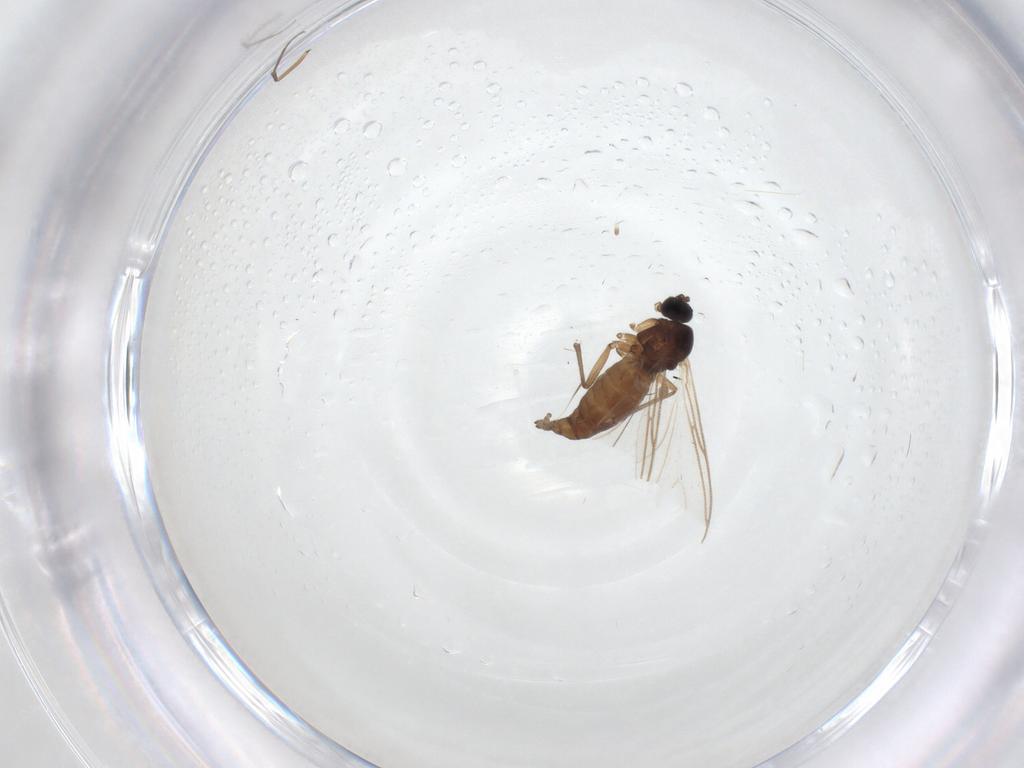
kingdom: Animalia
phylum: Arthropoda
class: Insecta
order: Diptera
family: Sciaridae
